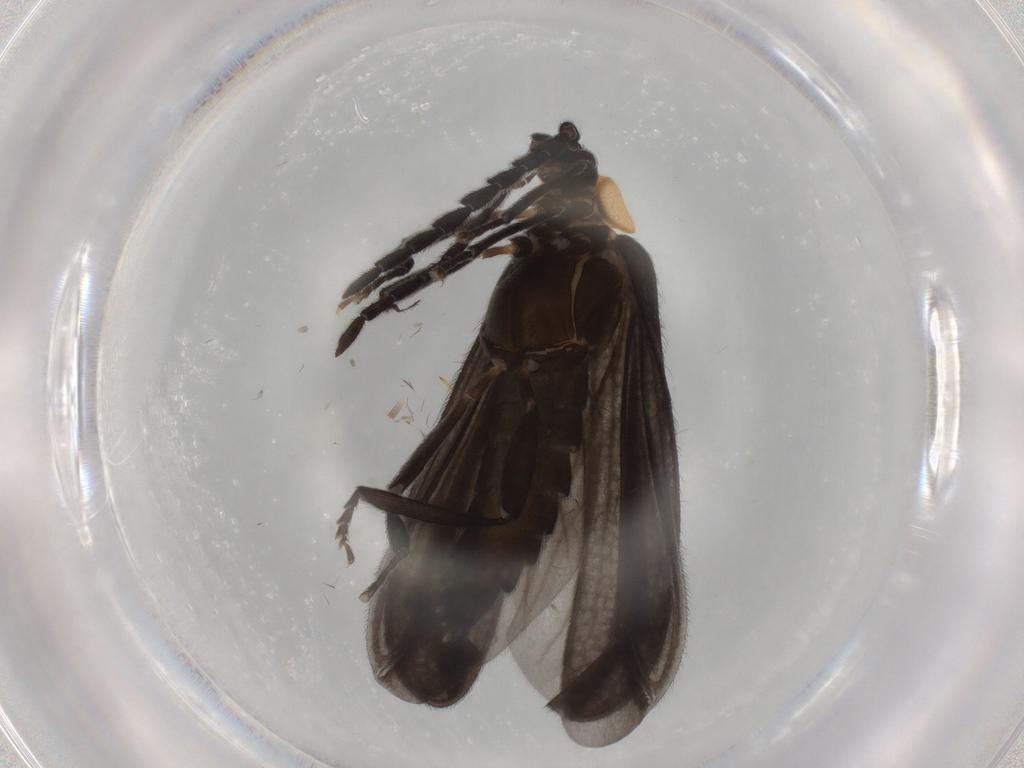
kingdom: Animalia
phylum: Arthropoda
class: Insecta
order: Coleoptera
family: Lycidae
